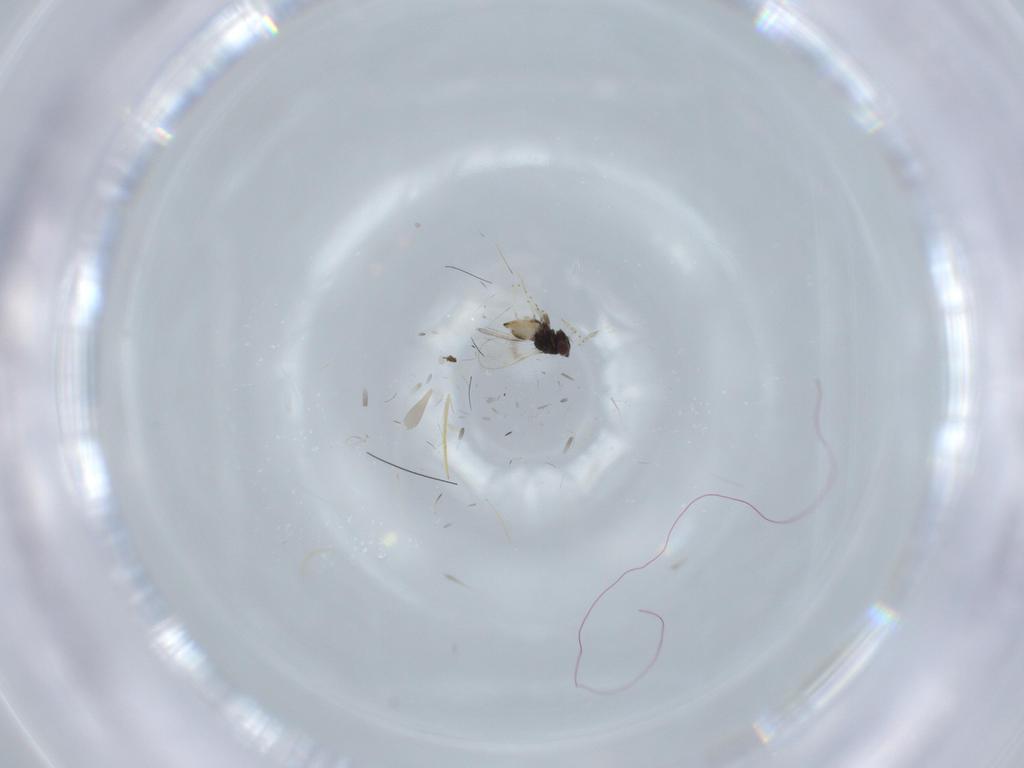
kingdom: Animalia
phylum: Arthropoda
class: Insecta
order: Hymenoptera
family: Eulophidae
